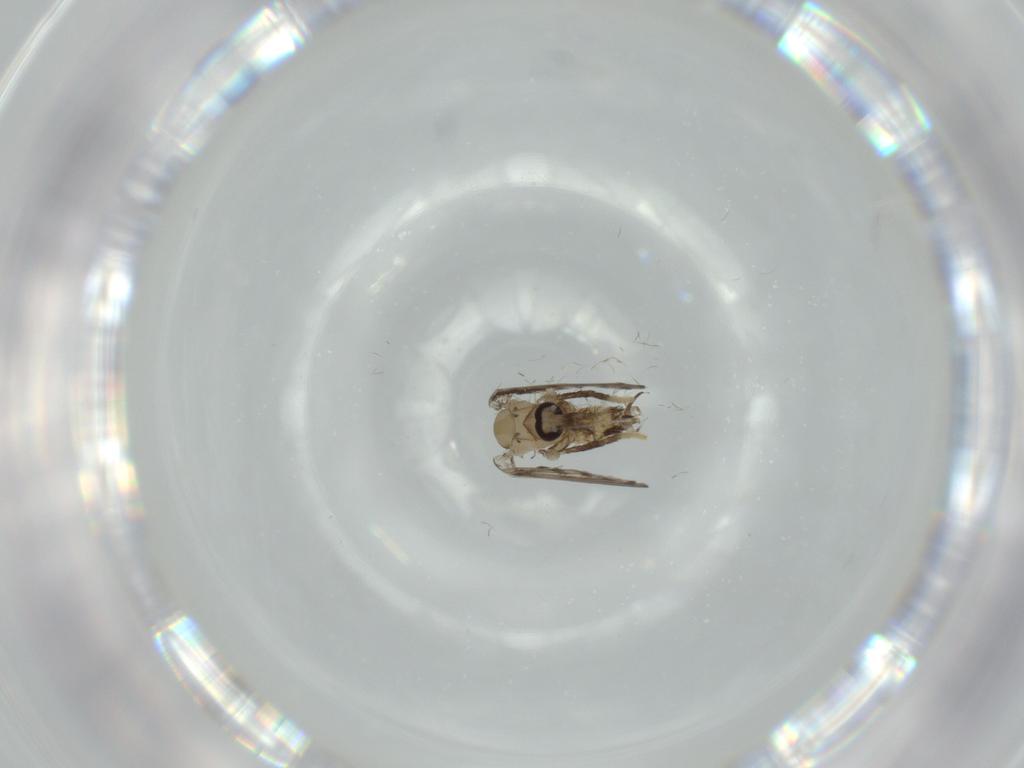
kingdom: Animalia
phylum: Arthropoda
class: Insecta
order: Diptera
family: Psychodidae
